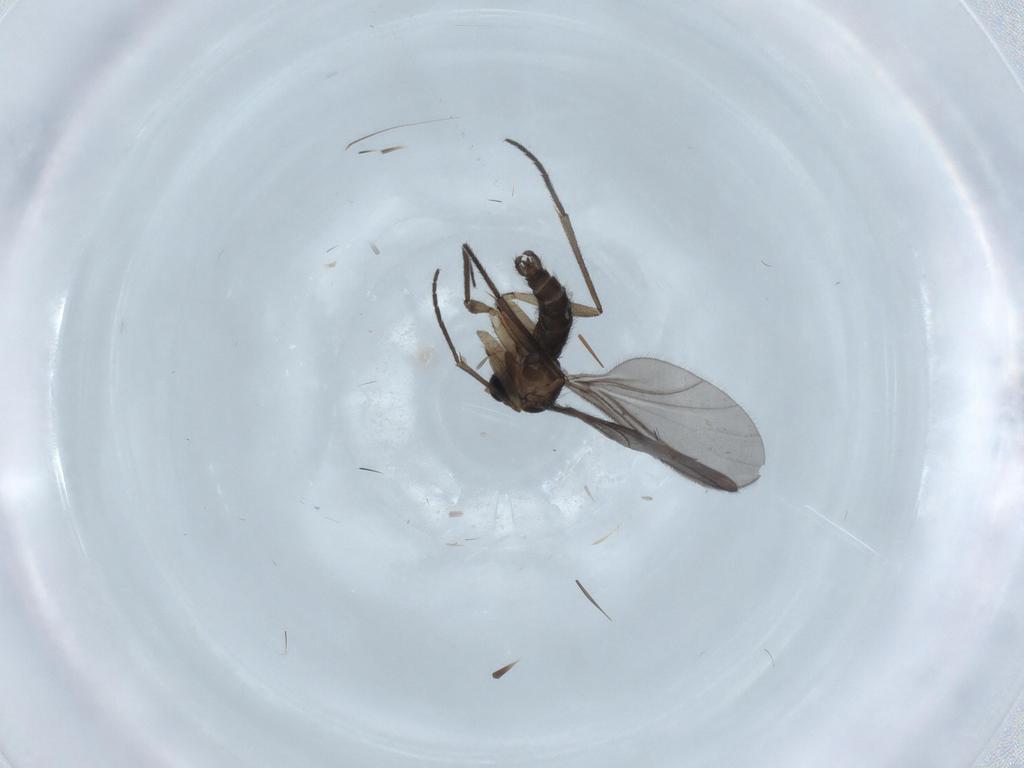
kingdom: Animalia
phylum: Arthropoda
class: Insecta
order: Diptera
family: Sciaridae
